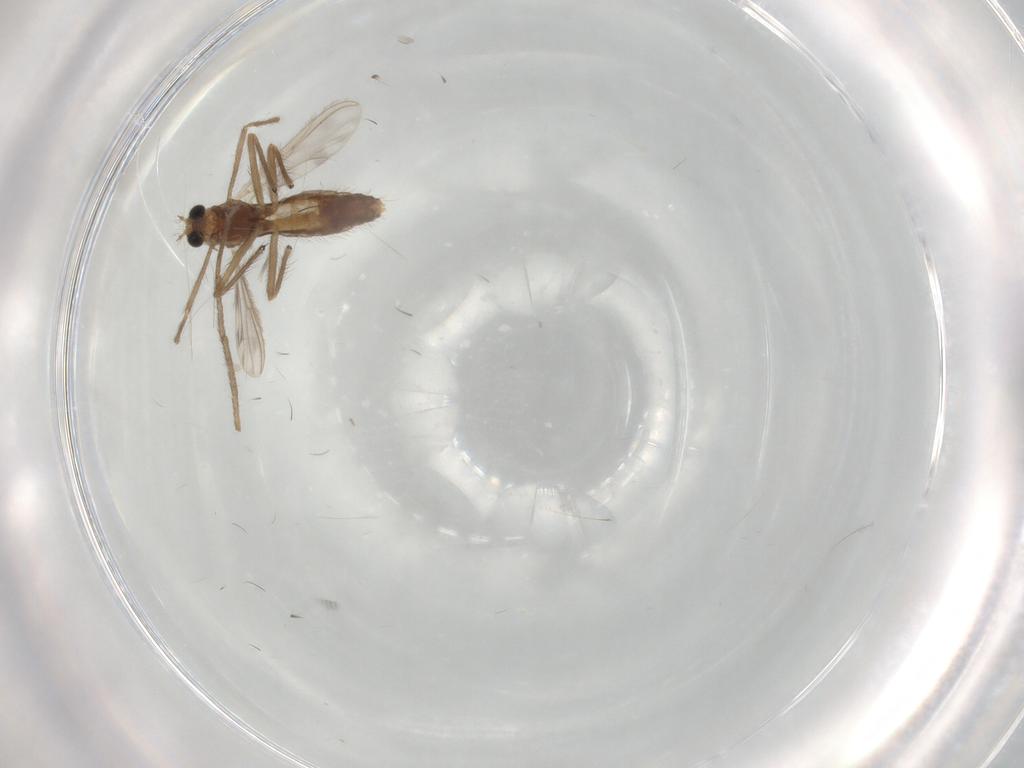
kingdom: Animalia
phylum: Arthropoda
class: Insecta
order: Diptera
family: Chironomidae
